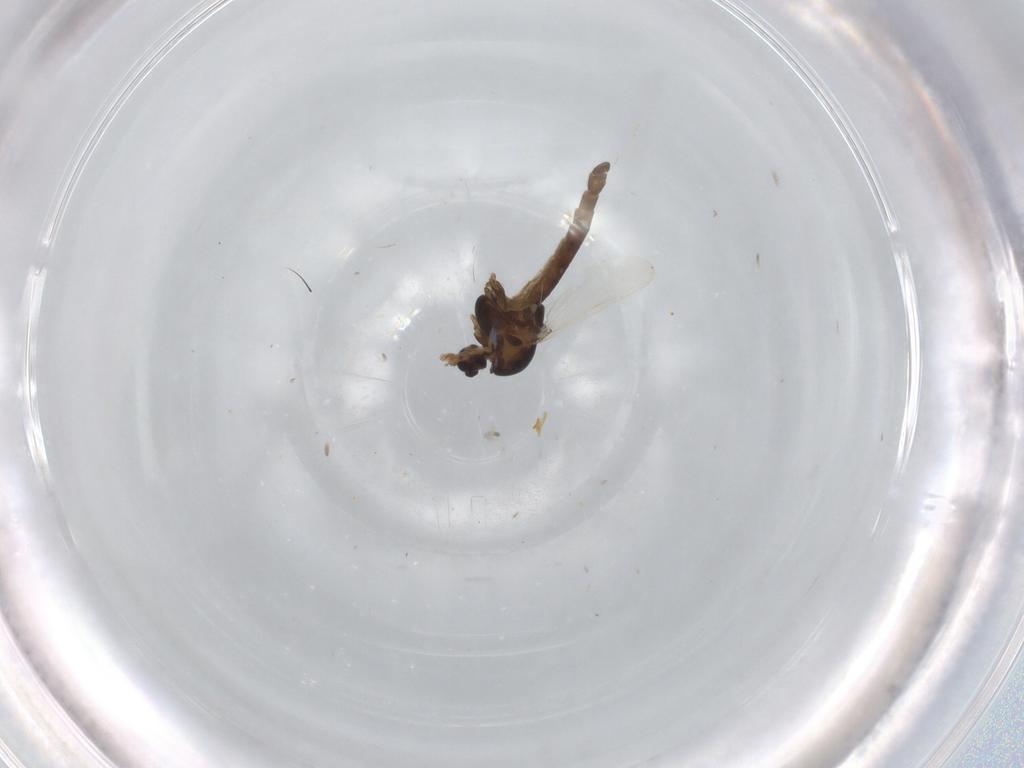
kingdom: Animalia
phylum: Arthropoda
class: Insecta
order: Diptera
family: Chironomidae
